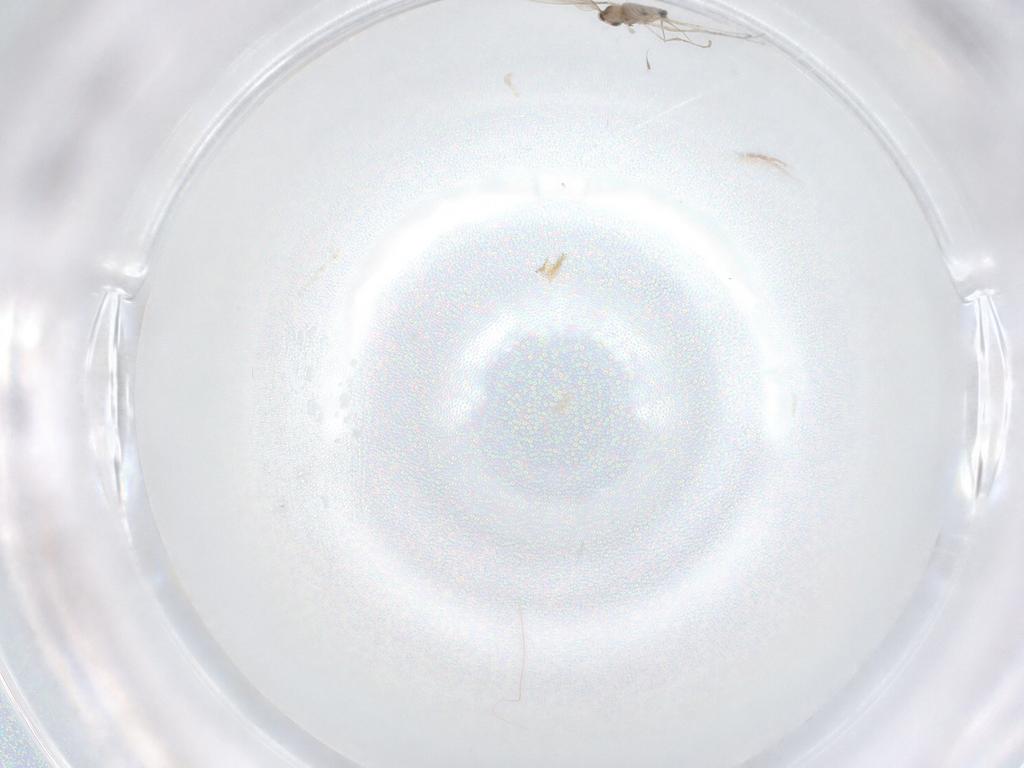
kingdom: Animalia
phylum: Arthropoda
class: Insecta
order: Diptera
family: Cecidomyiidae
